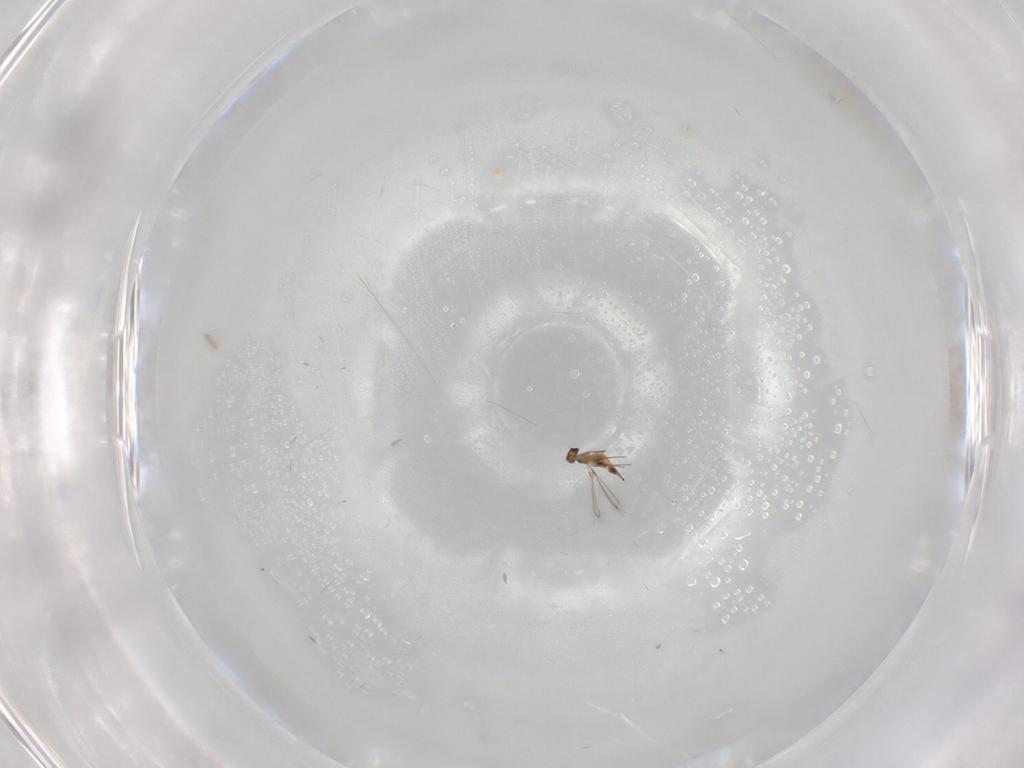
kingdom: Animalia
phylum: Arthropoda
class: Insecta
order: Hymenoptera
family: Mymaridae
